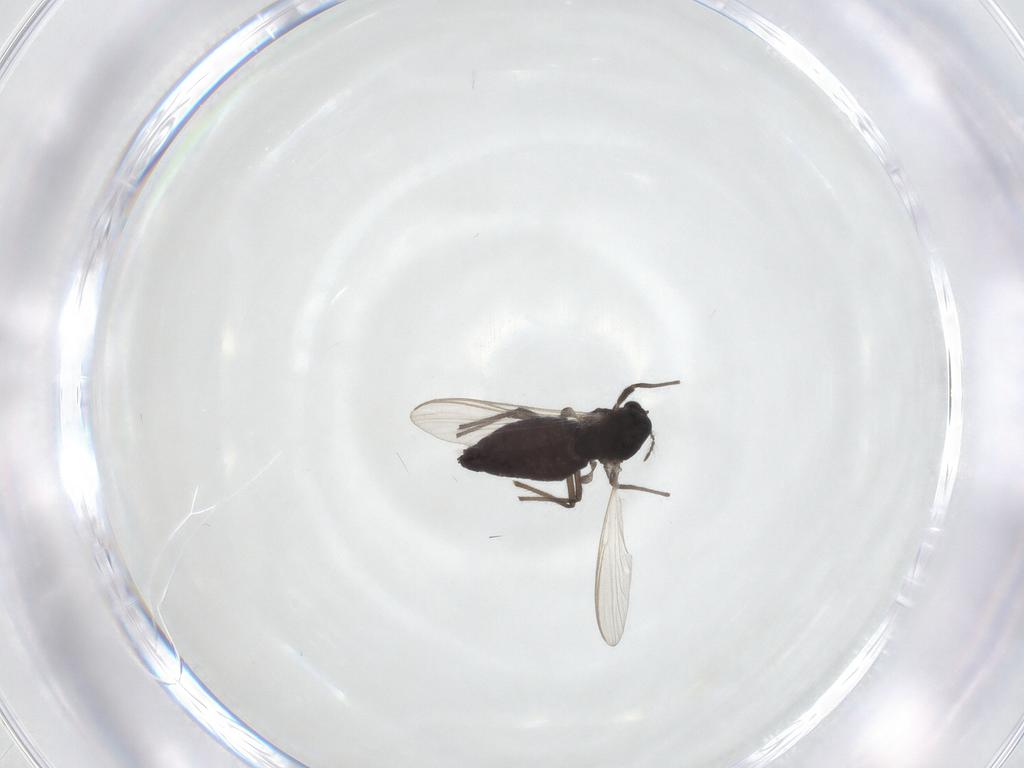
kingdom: Animalia
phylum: Arthropoda
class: Insecta
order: Diptera
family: Chironomidae
